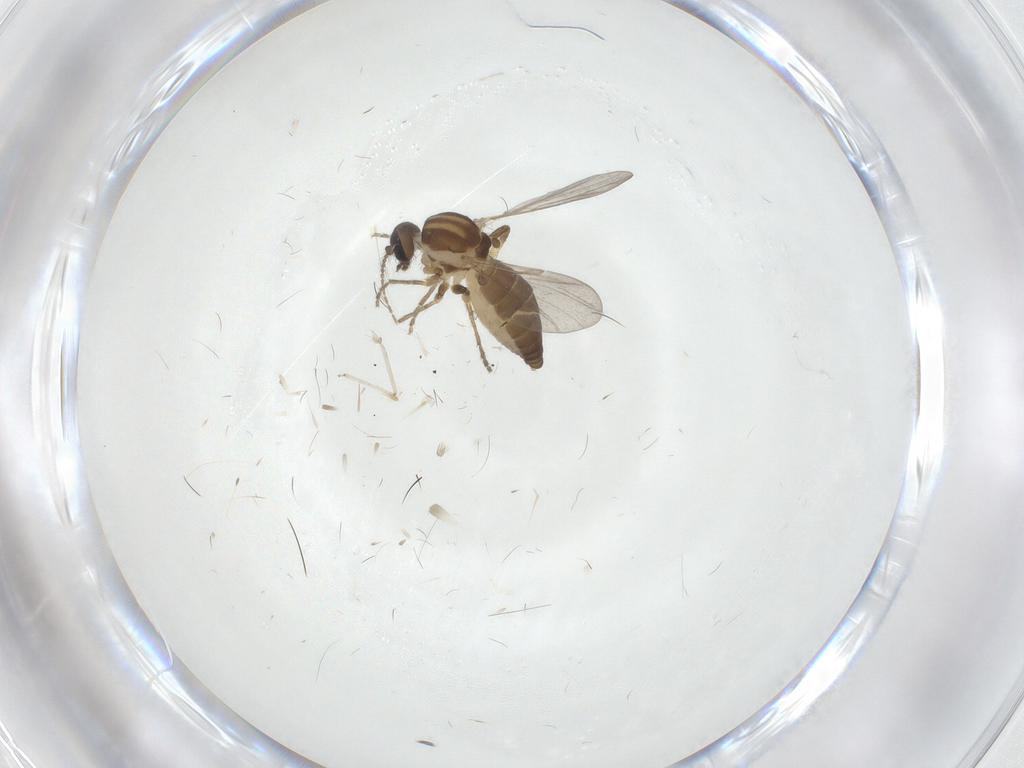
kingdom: Animalia
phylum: Arthropoda
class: Insecta
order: Diptera
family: Ceratopogonidae
